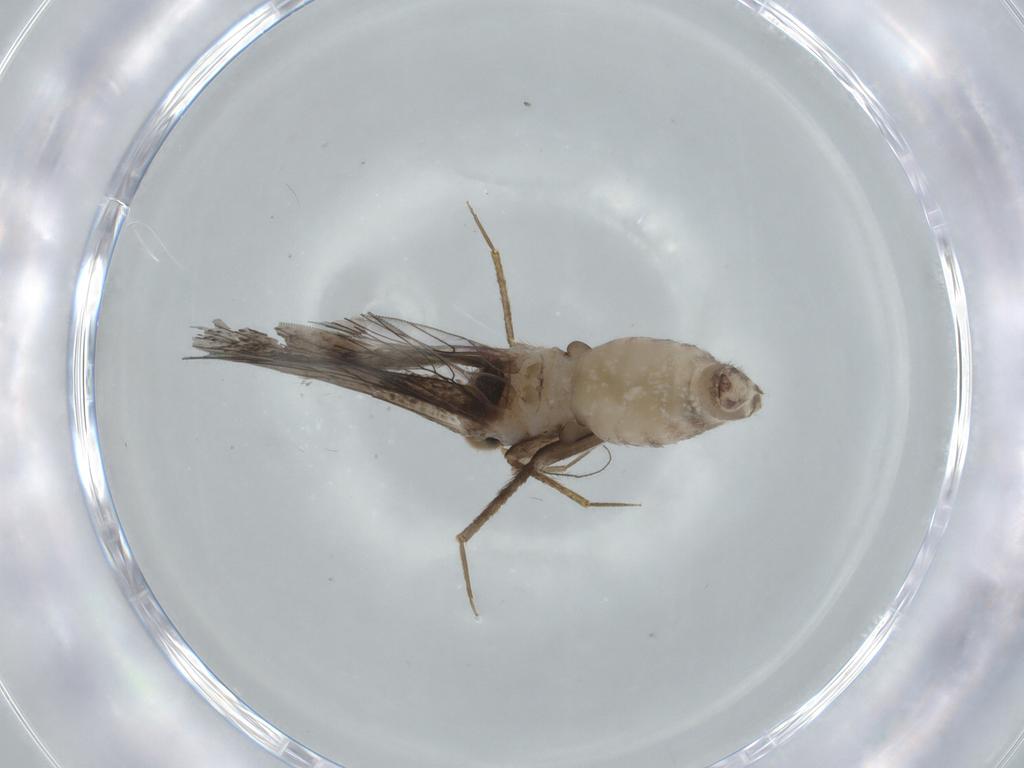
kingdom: Animalia
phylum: Arthropoda
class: Insecta
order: Psocodea
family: Lepidopsocidae
